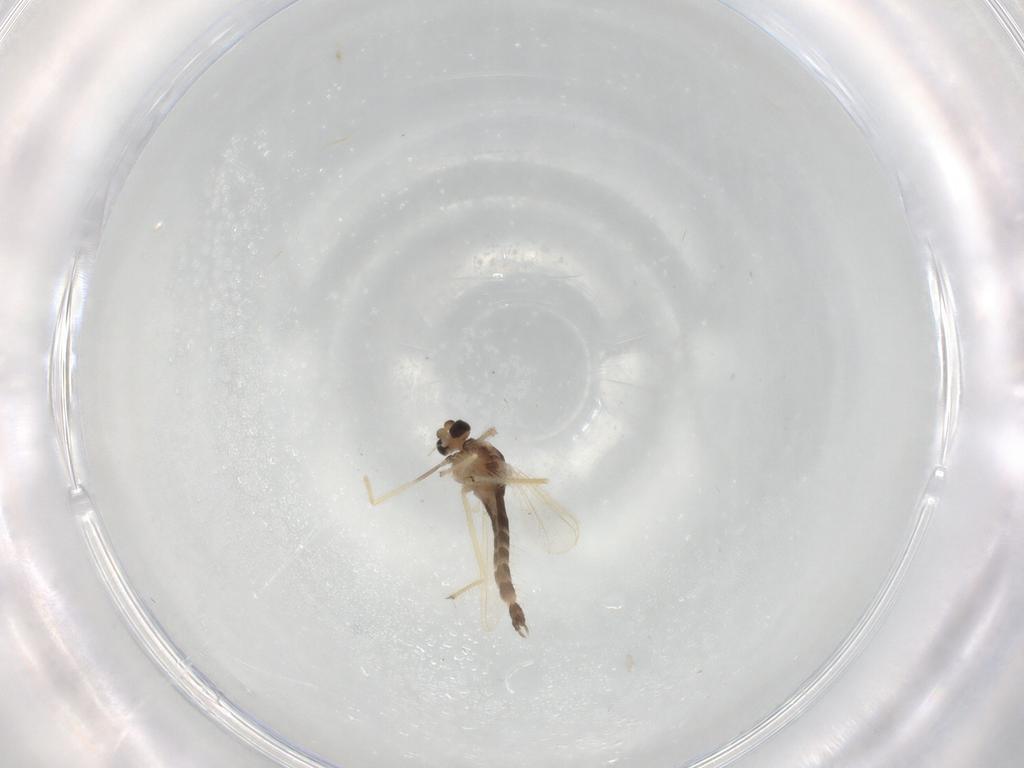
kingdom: Animalia
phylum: Arthropoda
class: Insecta
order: Diptera
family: Chironomidae
